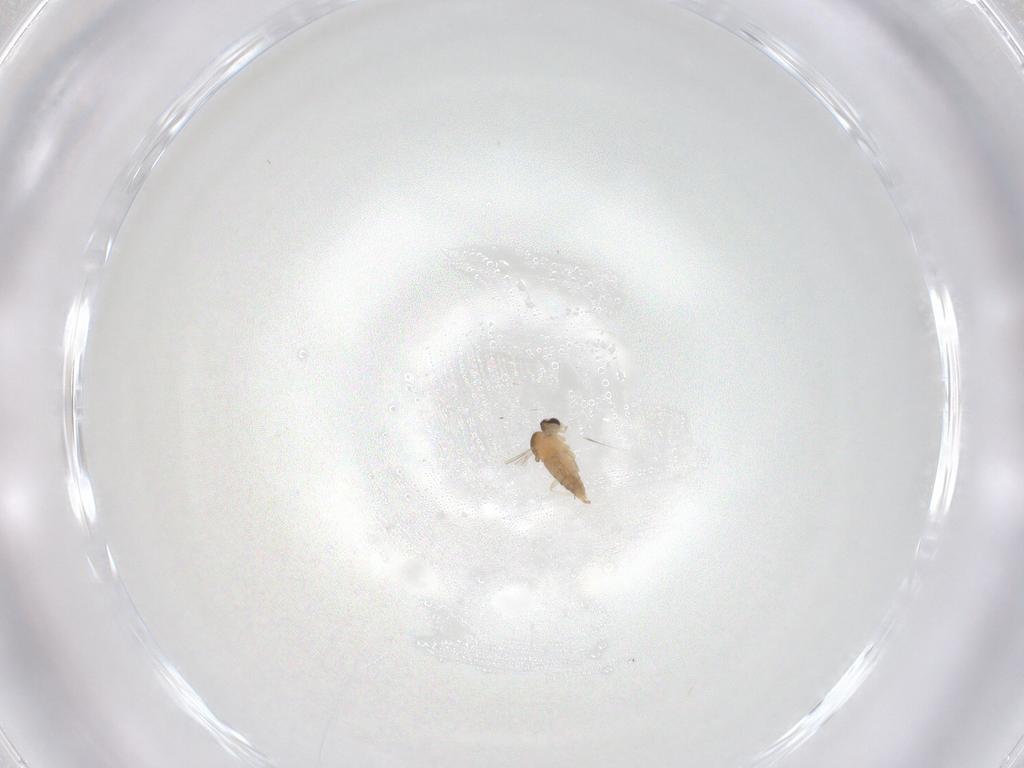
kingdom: Animalia
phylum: Arthropoda
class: Insecta
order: Diptera
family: Cecidomyiidae
